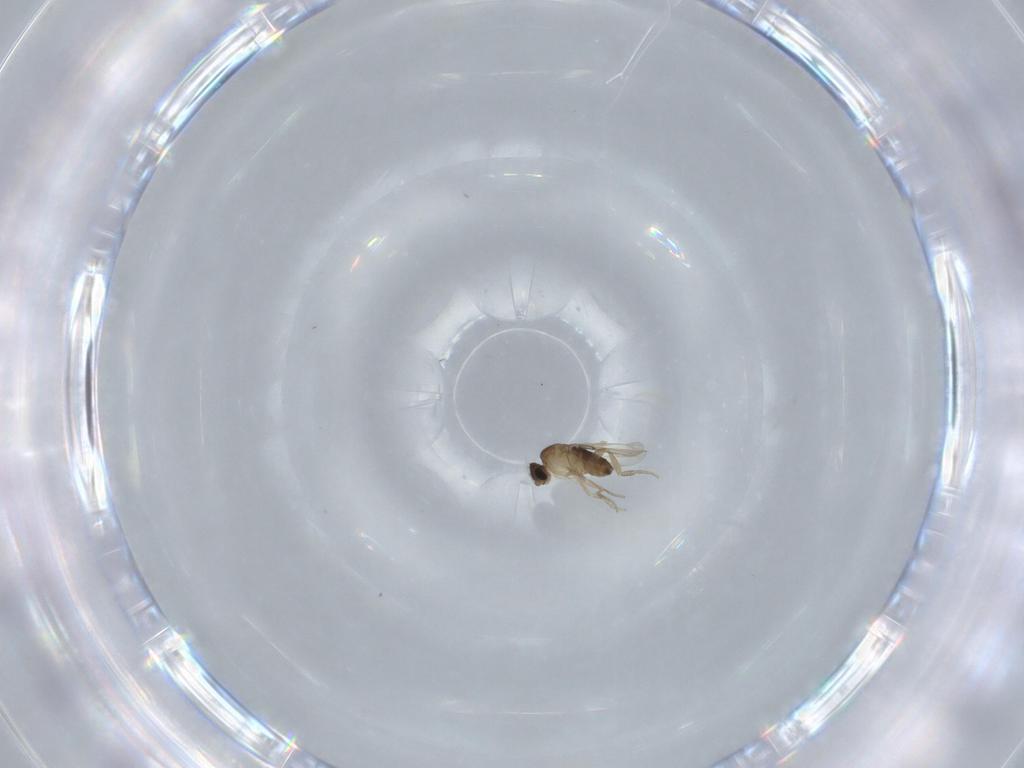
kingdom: Animalia
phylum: Arthropoda
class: Insecta
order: Diptera
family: Phoridae
